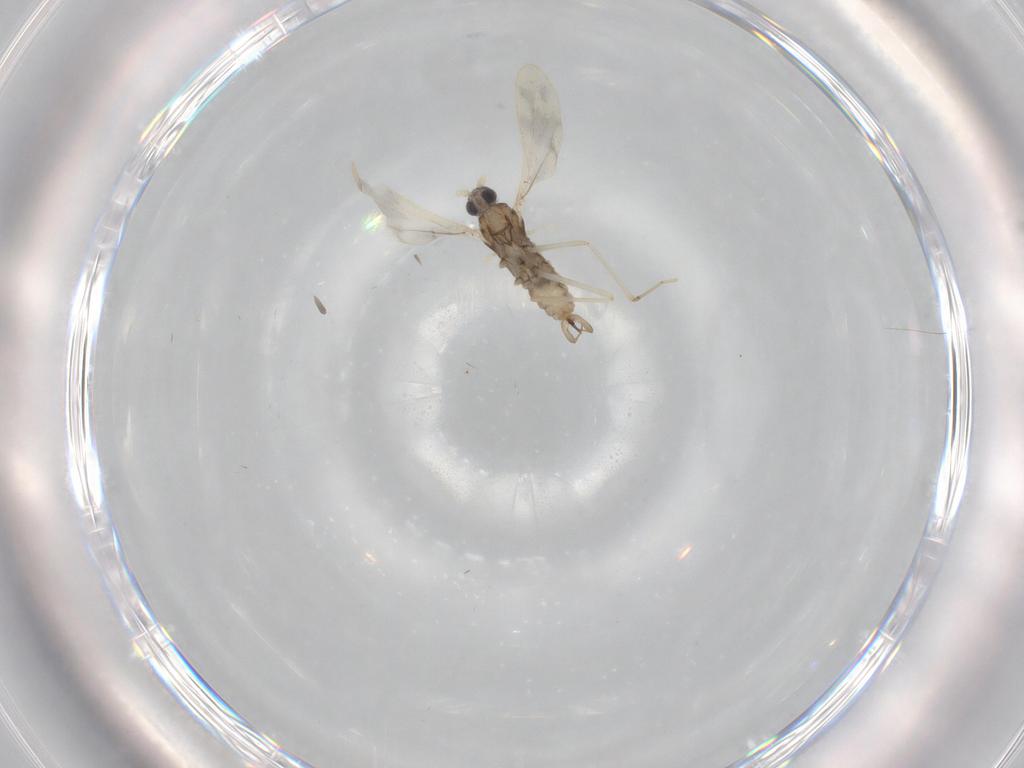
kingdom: Animalia
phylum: Arthropoda
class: Insecta
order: Diptera
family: Cecidomyiidae
